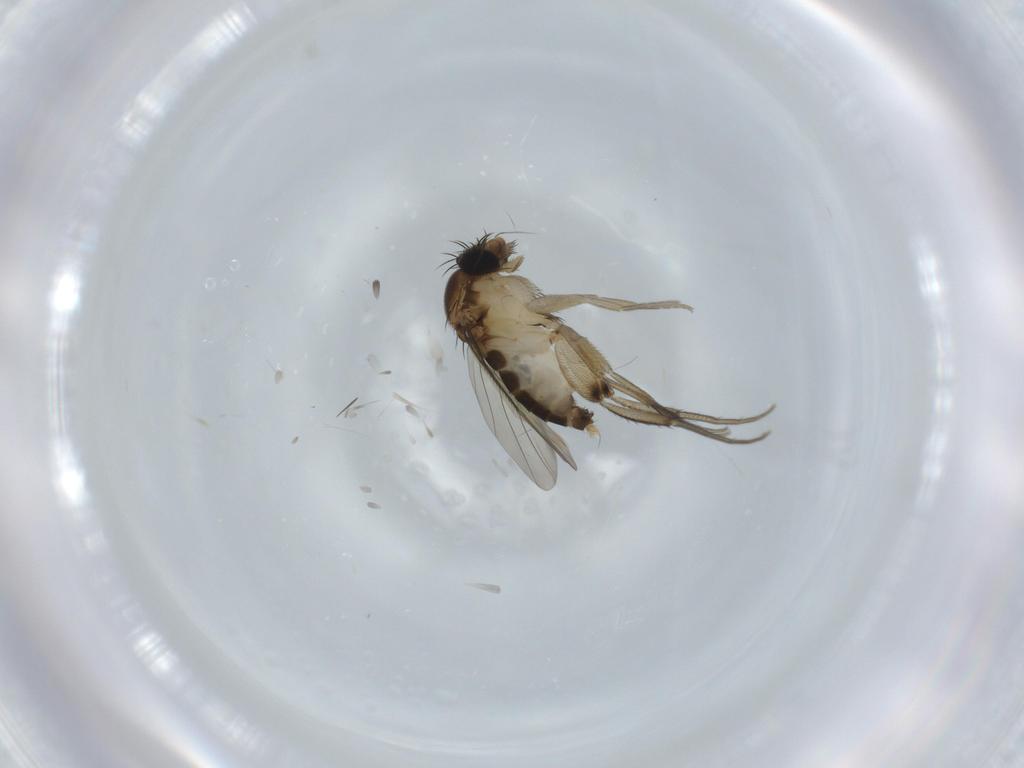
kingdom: Animalia
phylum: Arthropoda
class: Insecta
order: Diptera
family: Phoridae
